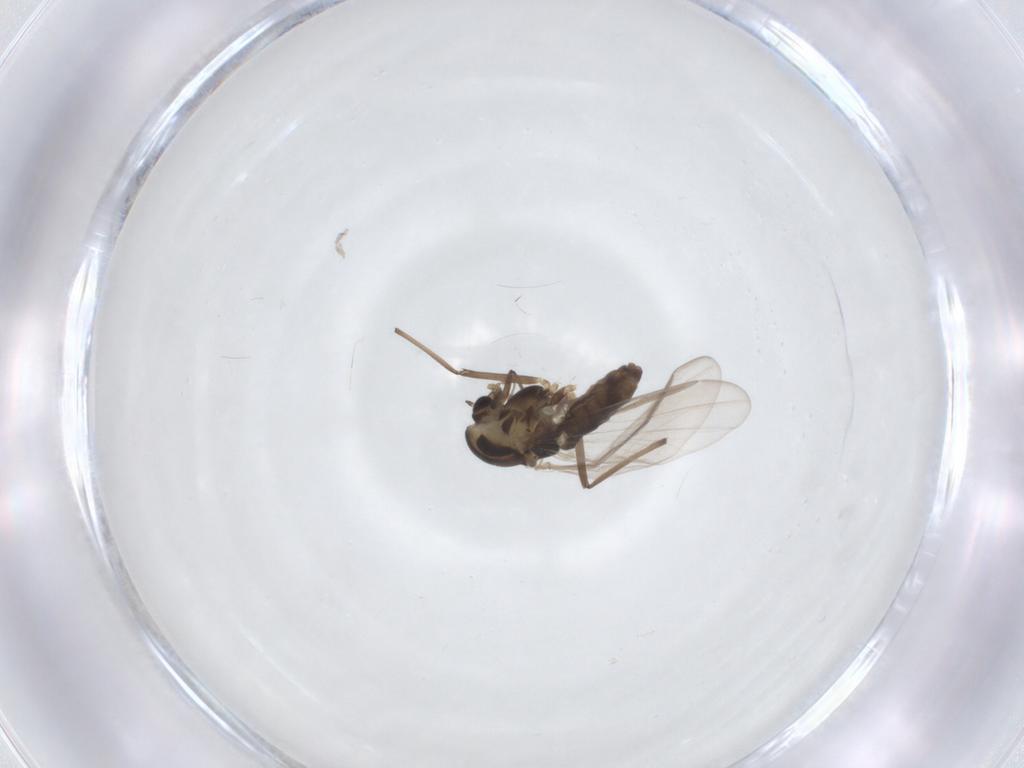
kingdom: Animalia
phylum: Arthropoda
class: Insecta
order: Diptera
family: Chironomidae
